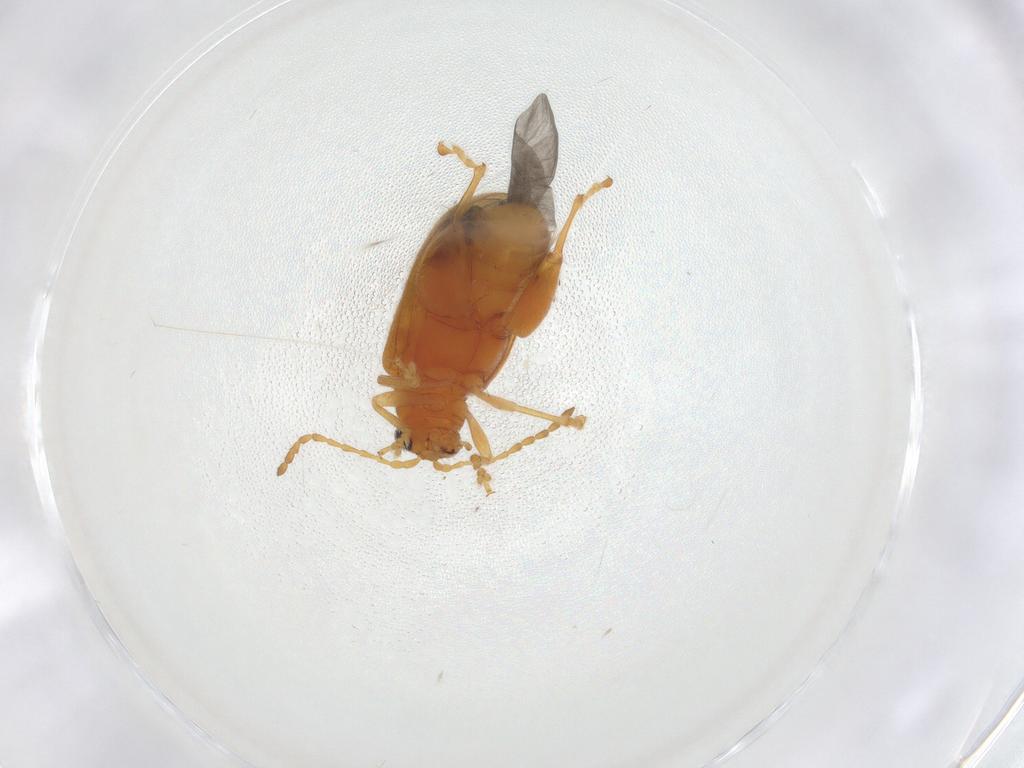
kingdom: Animalia
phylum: Arthropoda
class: Insecta
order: Coleoptera
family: Chrysomelidae
